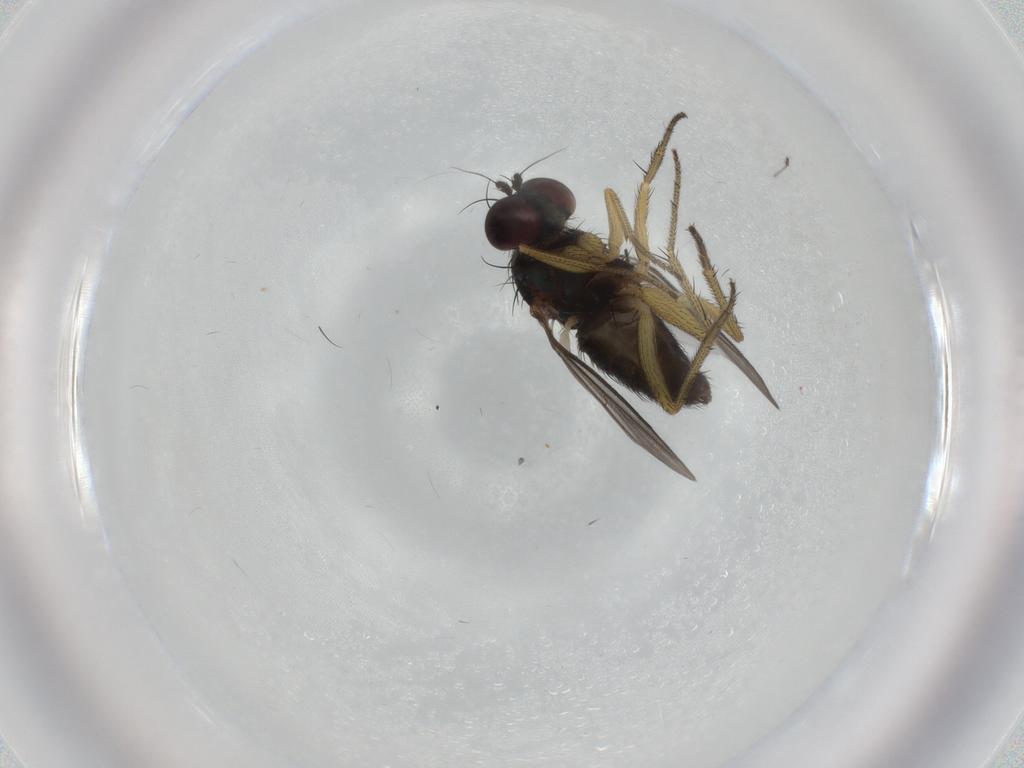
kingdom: Animalia
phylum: Arthropoda
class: Insecta
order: Diptera
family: Dolichopodidae
